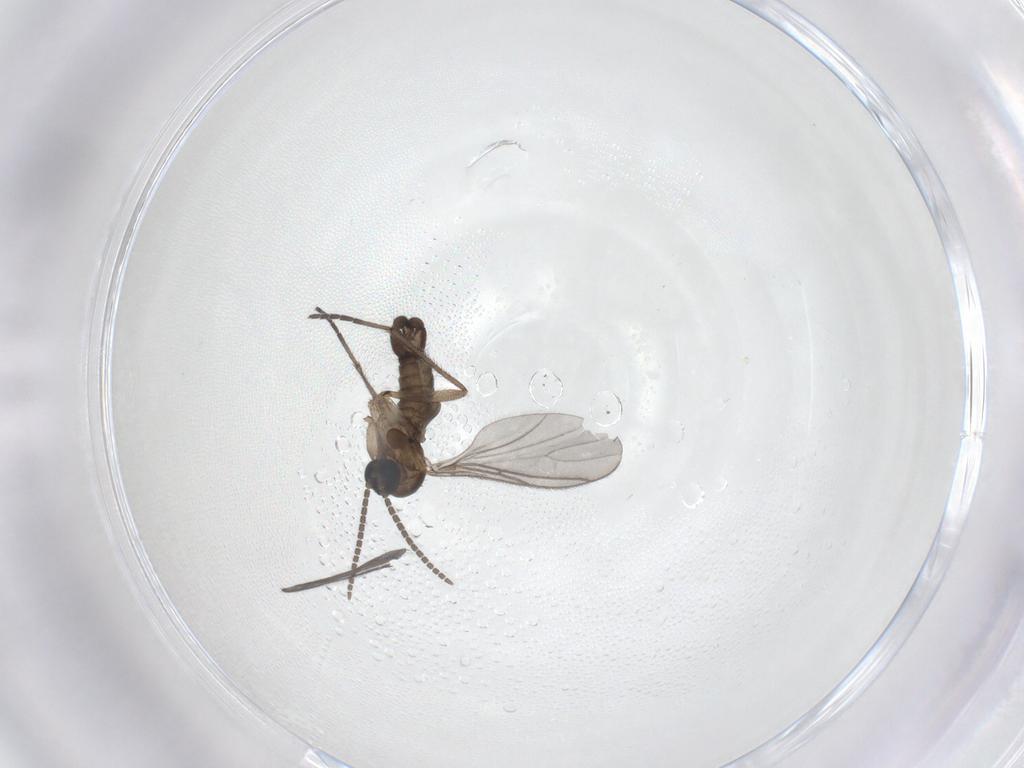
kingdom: Animalia
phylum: Arthropoda
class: Insecta
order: Diptera
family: Sciaridae
